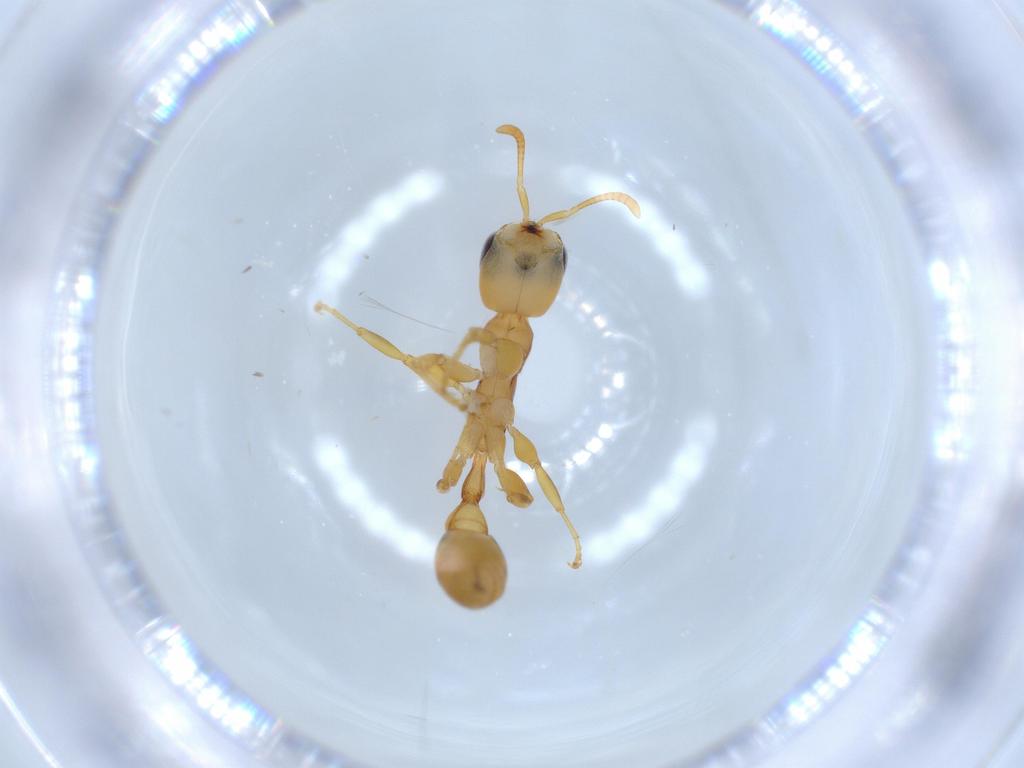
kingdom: Animalia
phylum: Arthropoda
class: Insecta
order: Hymenoptera
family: Formicidae
